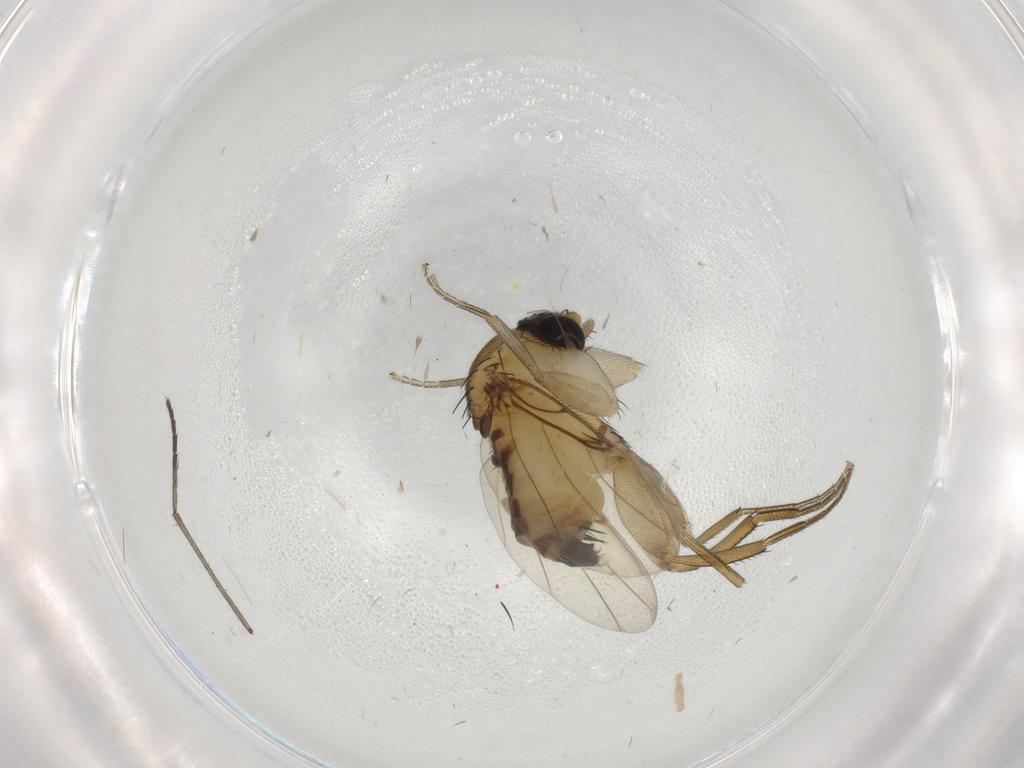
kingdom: Animalia
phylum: Arthropoda
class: Insecta
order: Diptera
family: Phoridae
